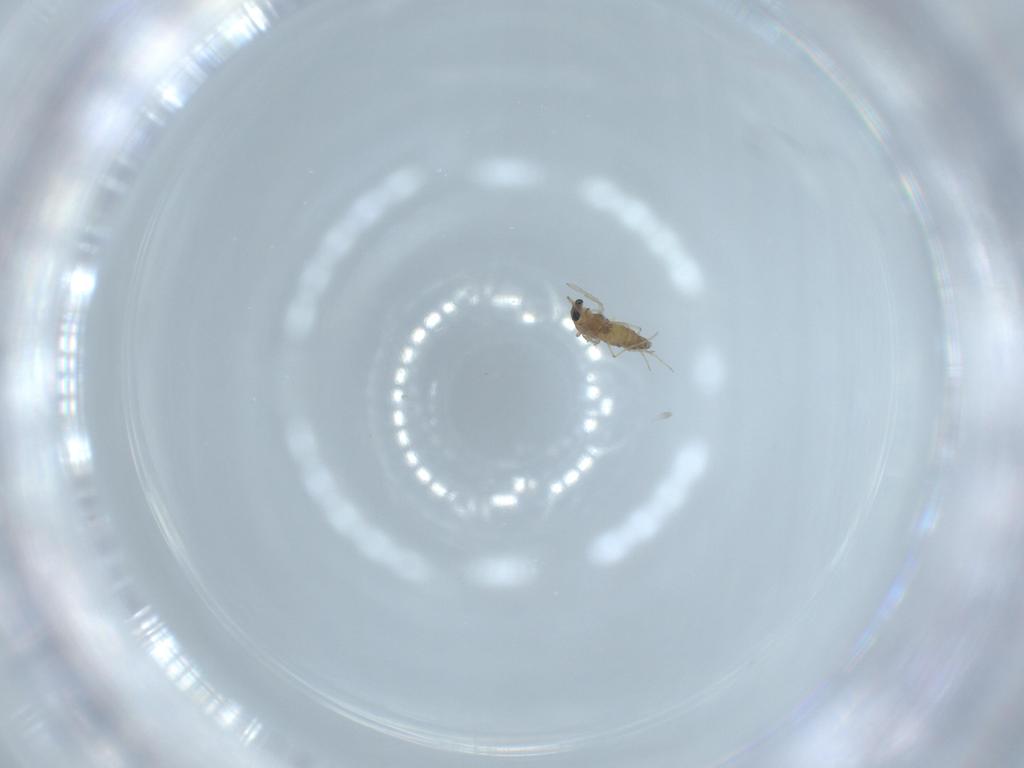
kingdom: Animalia
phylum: Arthropoda
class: Insecta
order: Diptera
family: Chironomidae
